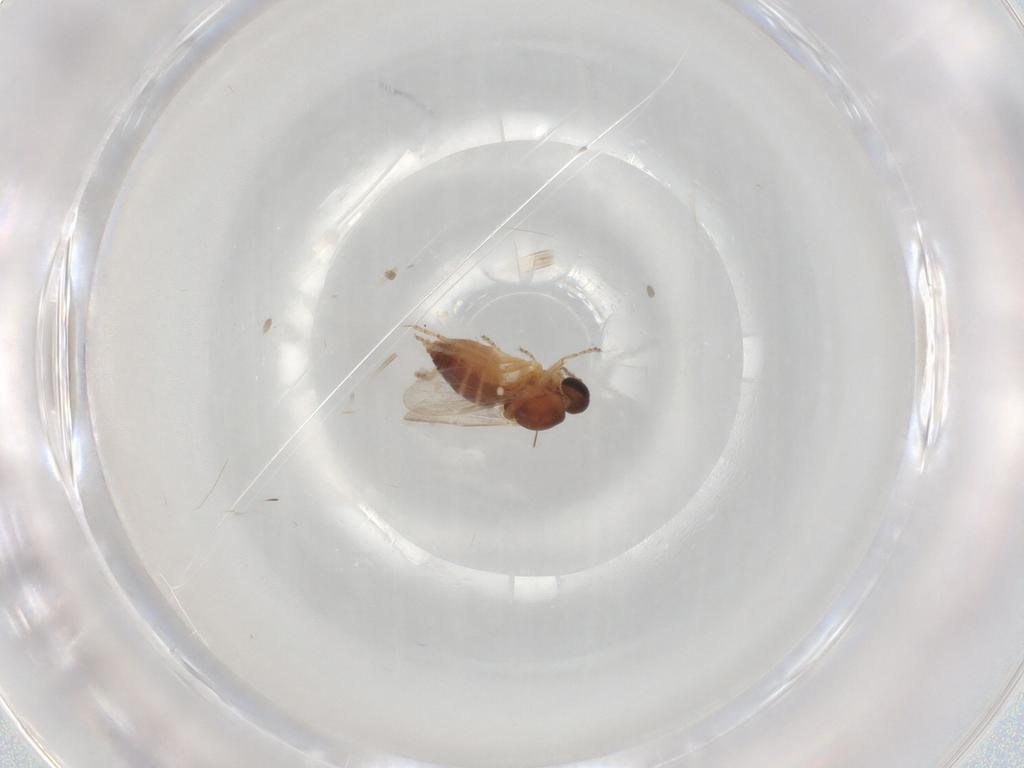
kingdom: Animalia
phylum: Arthropoda
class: Insecta
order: Diptera
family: Ceratopogonidae
